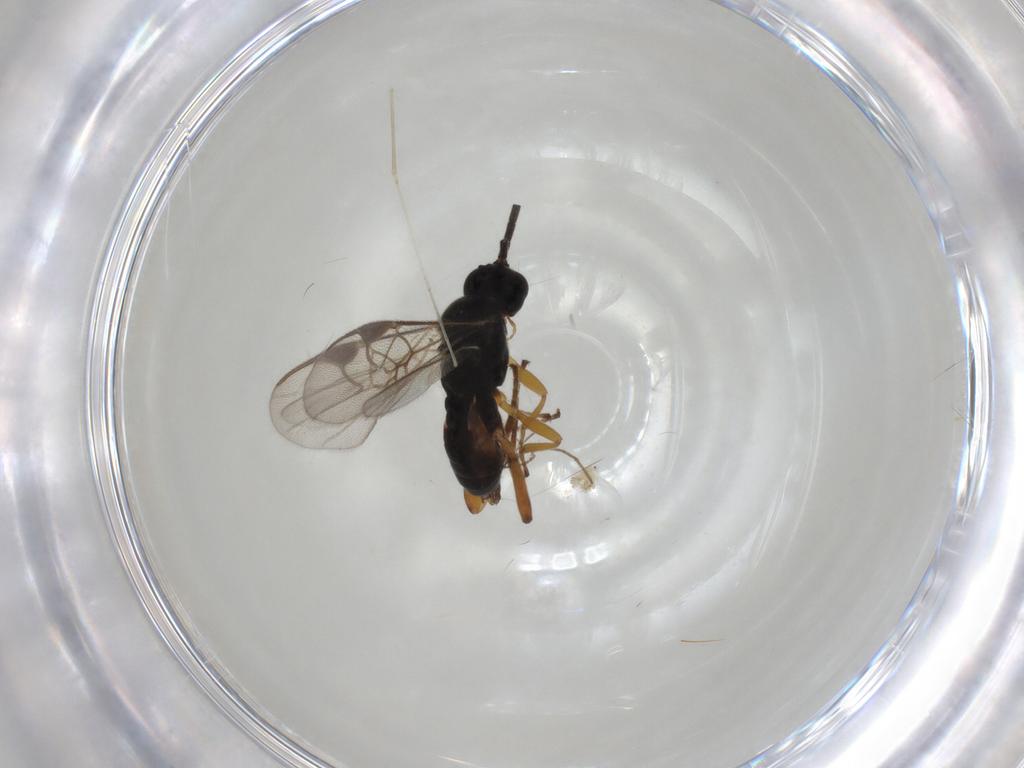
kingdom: Animalia
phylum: Arthropoda
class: Insecta
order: Hymenoptera
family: Braconidae
